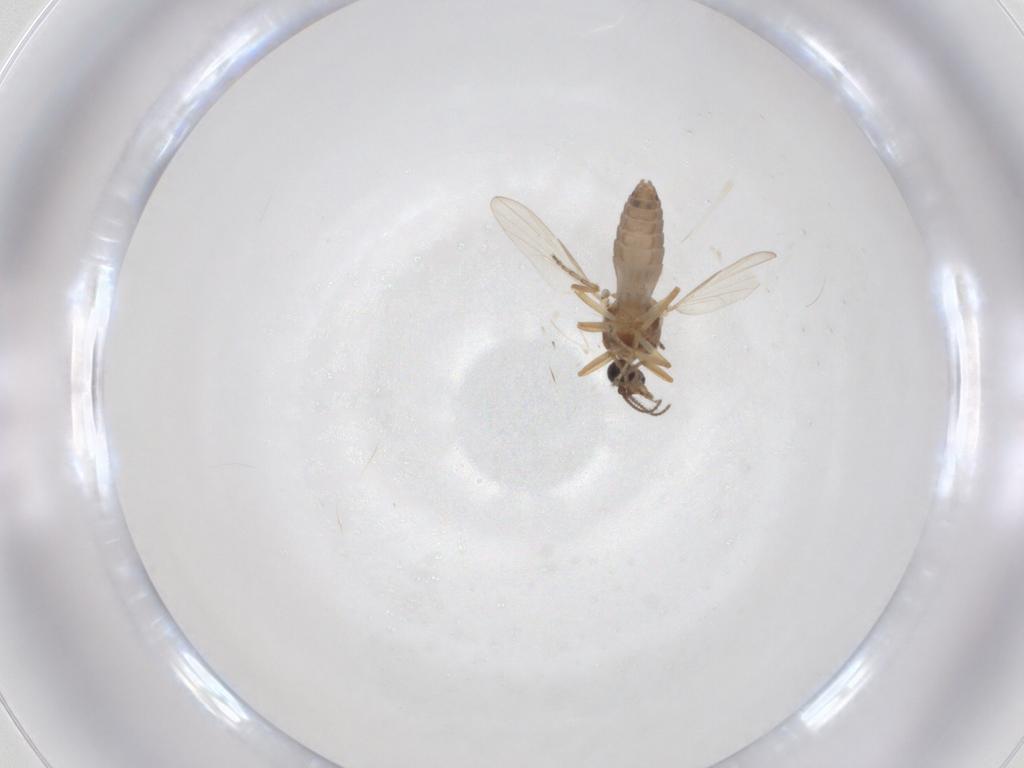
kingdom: Animalia
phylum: Arthropoda
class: Insecta
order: Diptera
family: Ceratopogonidae
